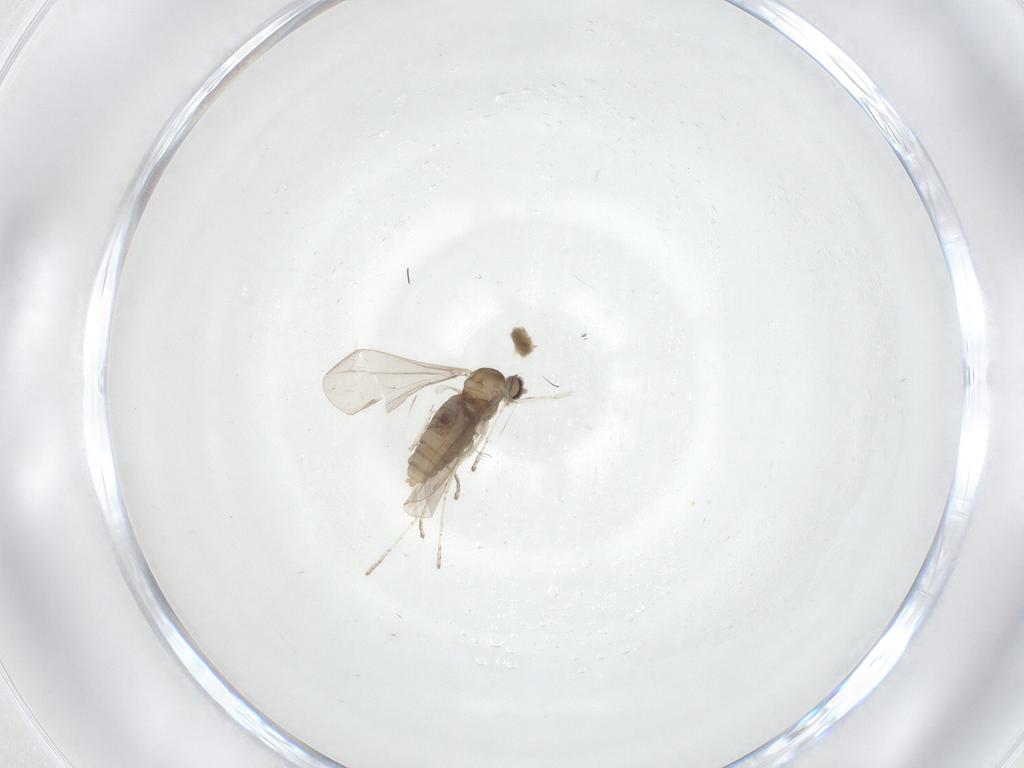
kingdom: Animalia
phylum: Arthropoda
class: Insecta
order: Diptera
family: Cecidomyiidae
